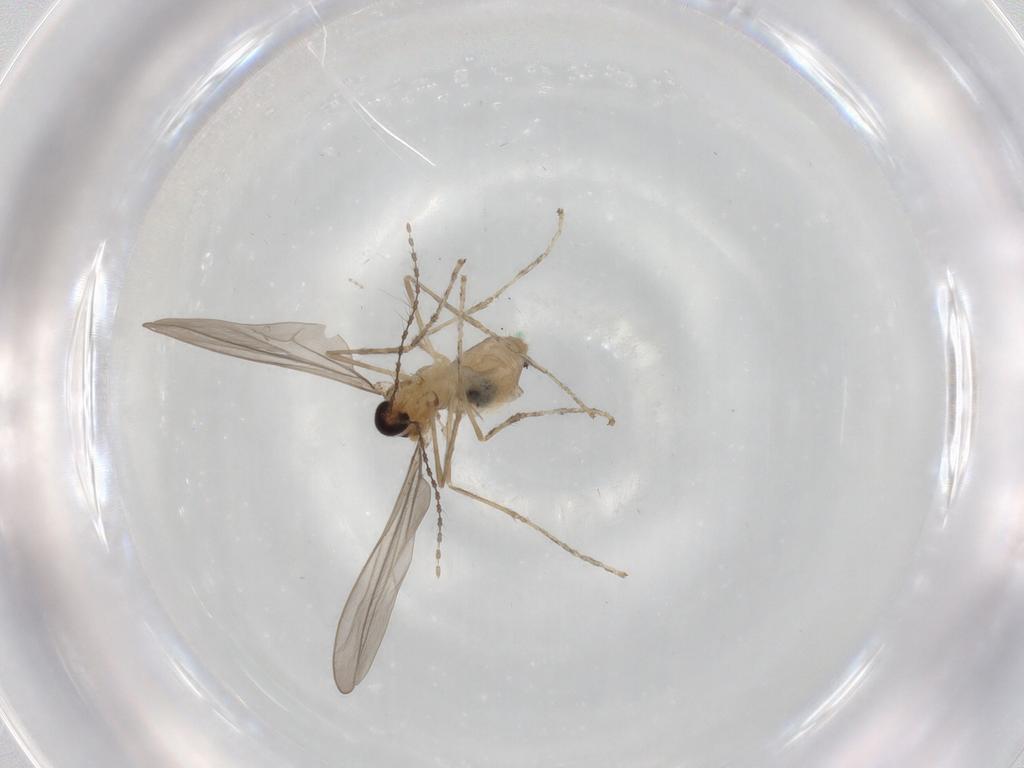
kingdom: Animalia
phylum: Arthropoda
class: Insecta
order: Diptera
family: Cecidomyiidae
